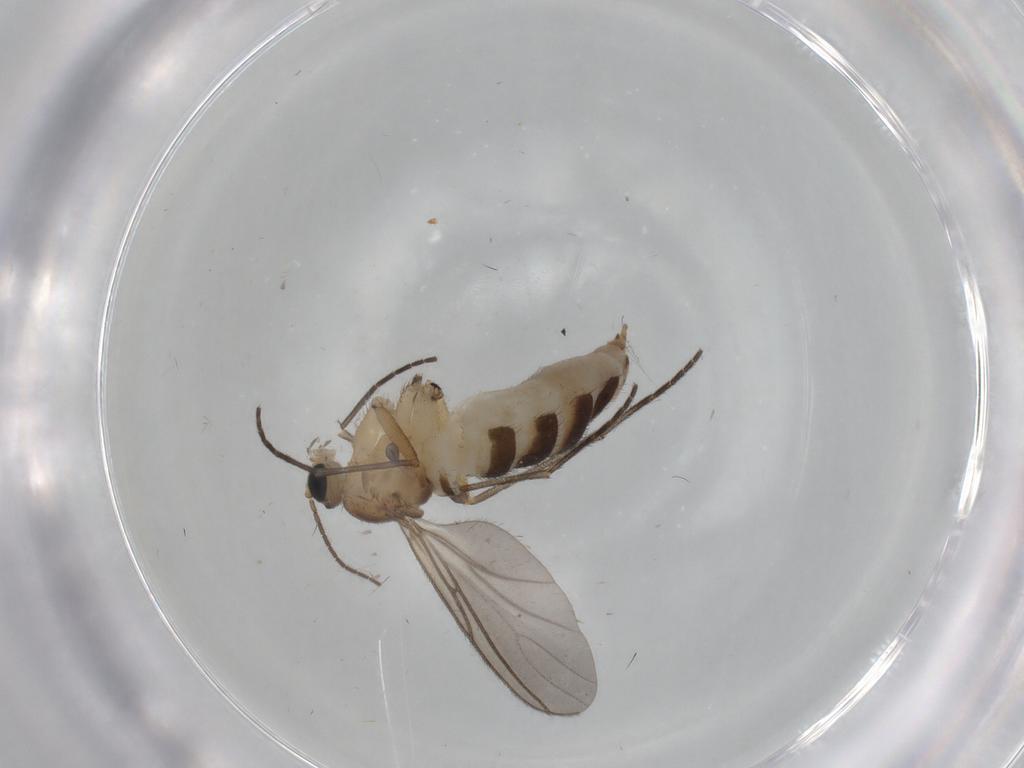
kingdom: Animalia
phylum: Arthropoda
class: Insecta
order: Diptera
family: Sciaridae
